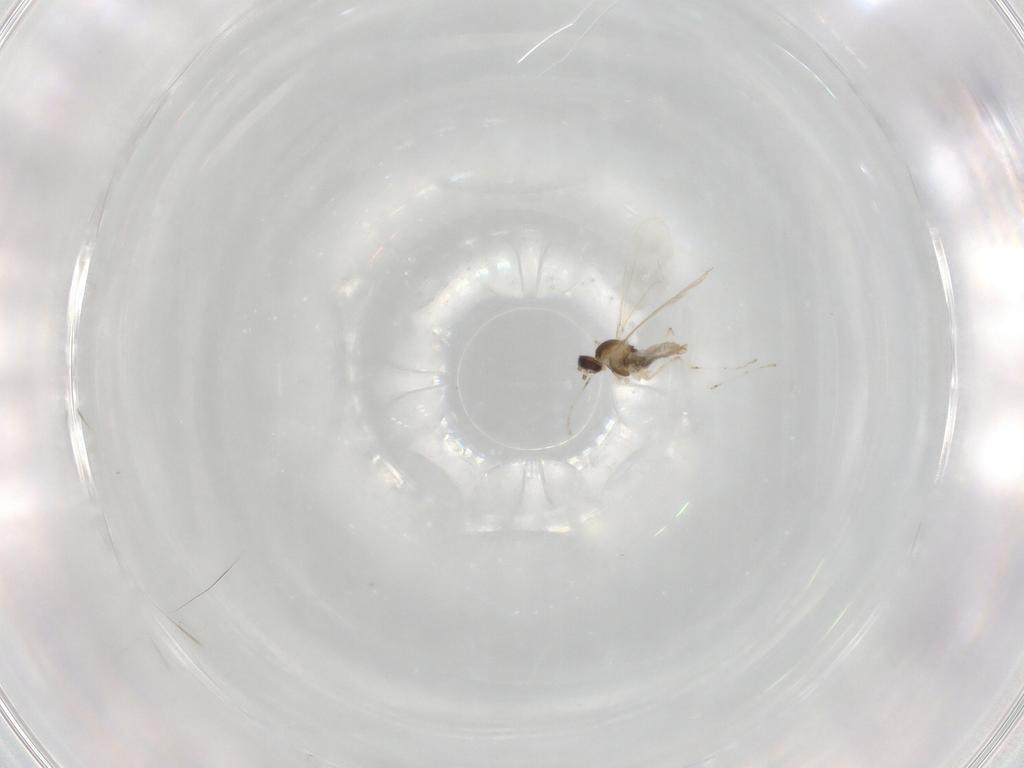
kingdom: Animalia
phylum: Arthropoda
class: Insecta
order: Diptera
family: Cecidomyiidae
